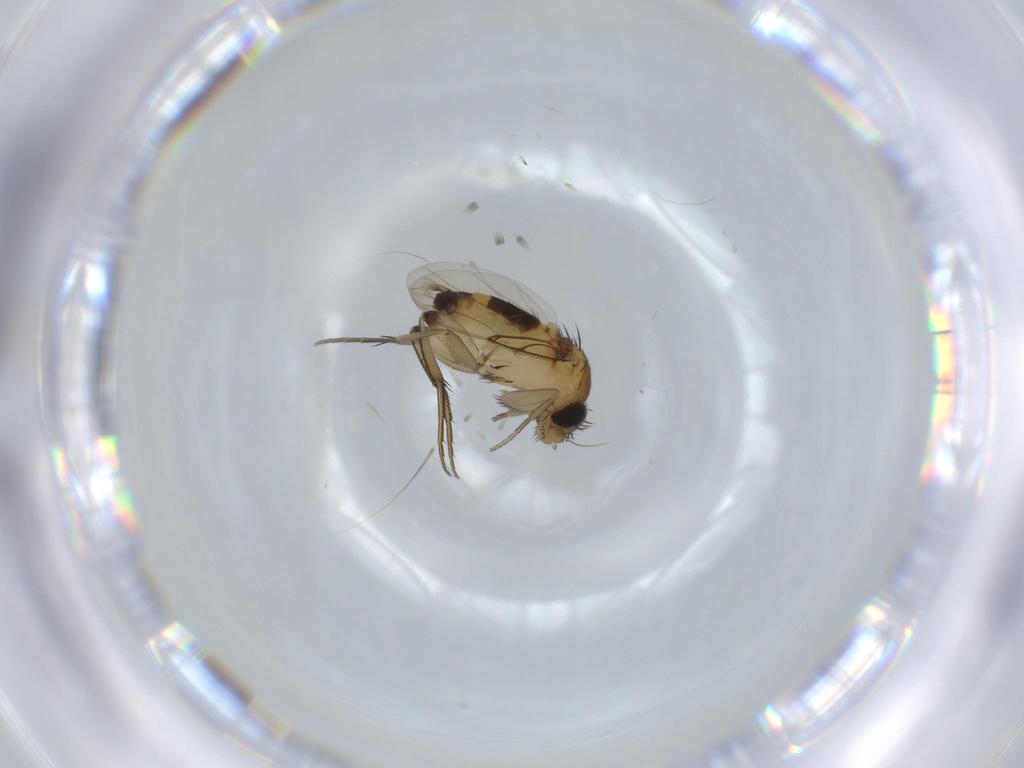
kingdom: Animalia
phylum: Arthropoda
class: Insecta
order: Diptera
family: Phoridae
